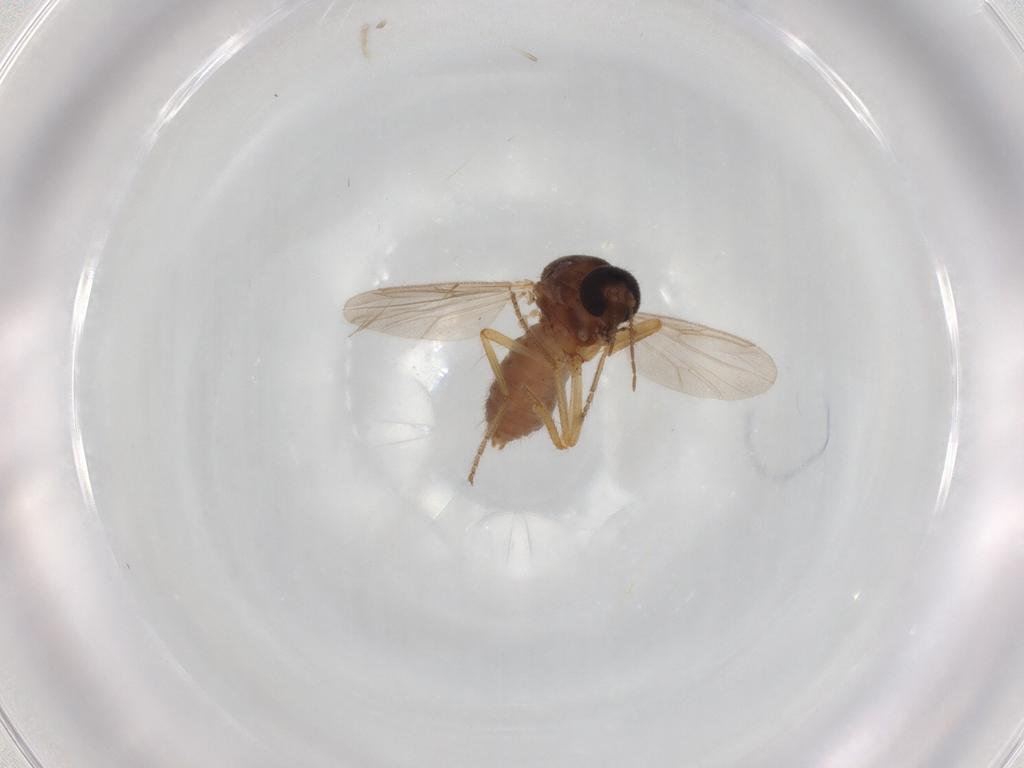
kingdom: Animalia
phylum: Arthropoda
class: Insecta
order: Diptera
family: Ceratopogonidae
